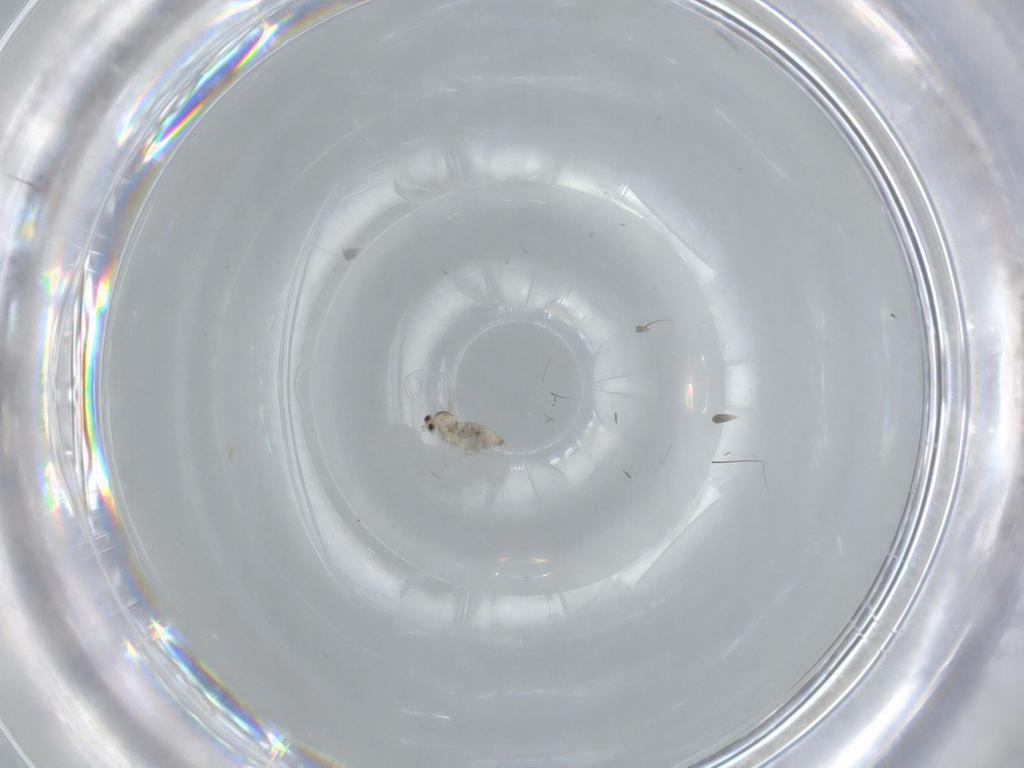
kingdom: Animalia
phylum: Arthropoda
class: Insecta
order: Diptera
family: Cecidomyiidae
